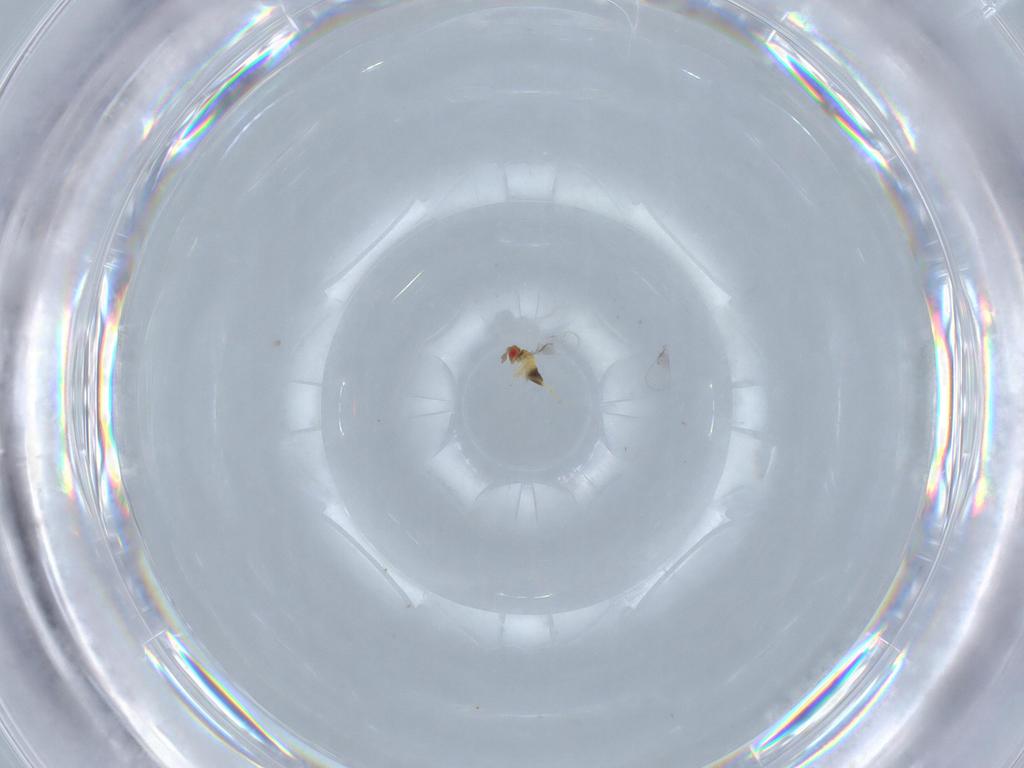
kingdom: Animalia
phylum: Arthropoda
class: Insecta
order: Hymenoptera
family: Trichogrammatidae
